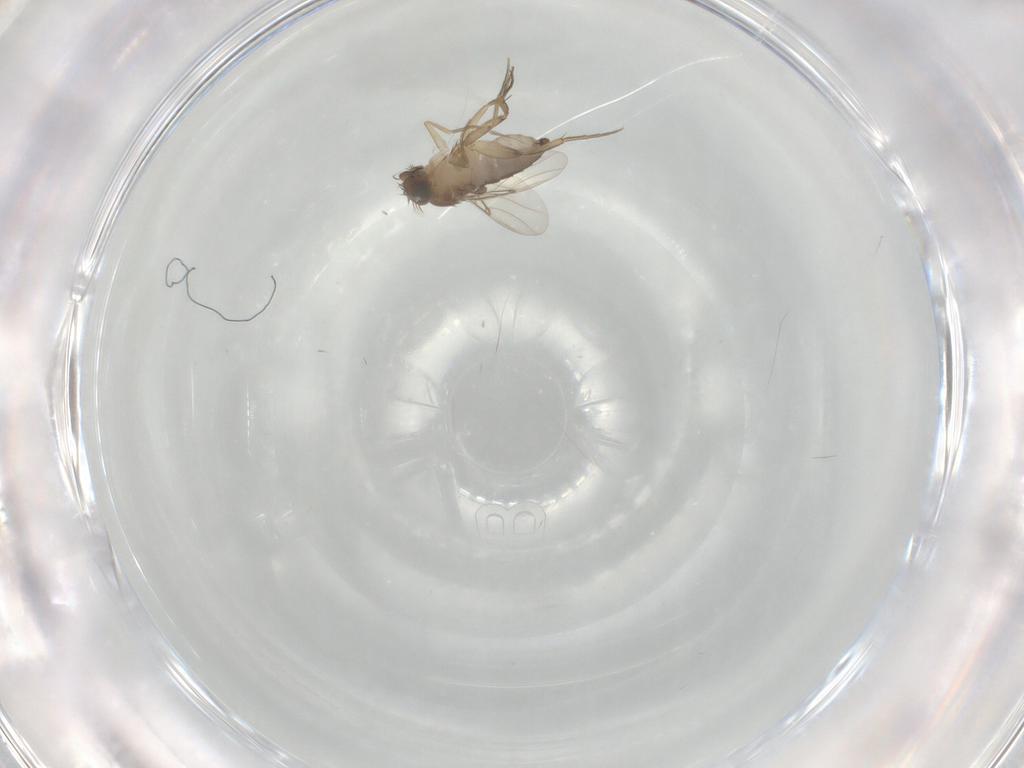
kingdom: Animalia
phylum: Arthropoda
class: Insecta
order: Diptera
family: Phoridae
